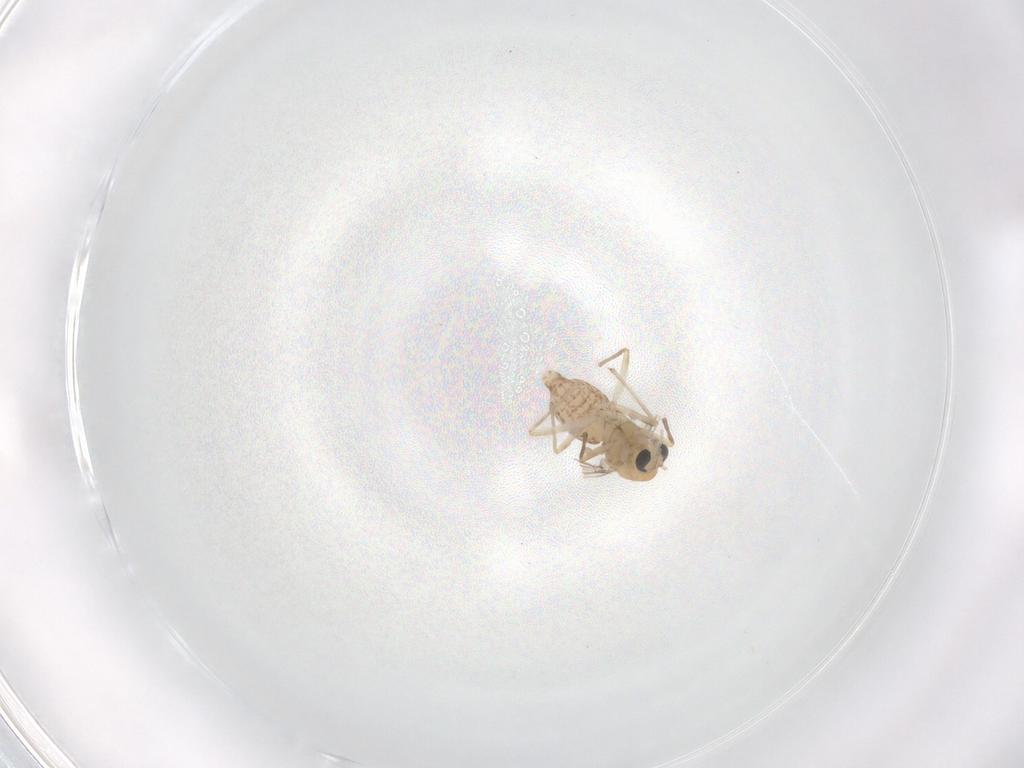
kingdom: Animalia
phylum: Arthropoda
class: Insecta
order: Diptera
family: Chironomidae
